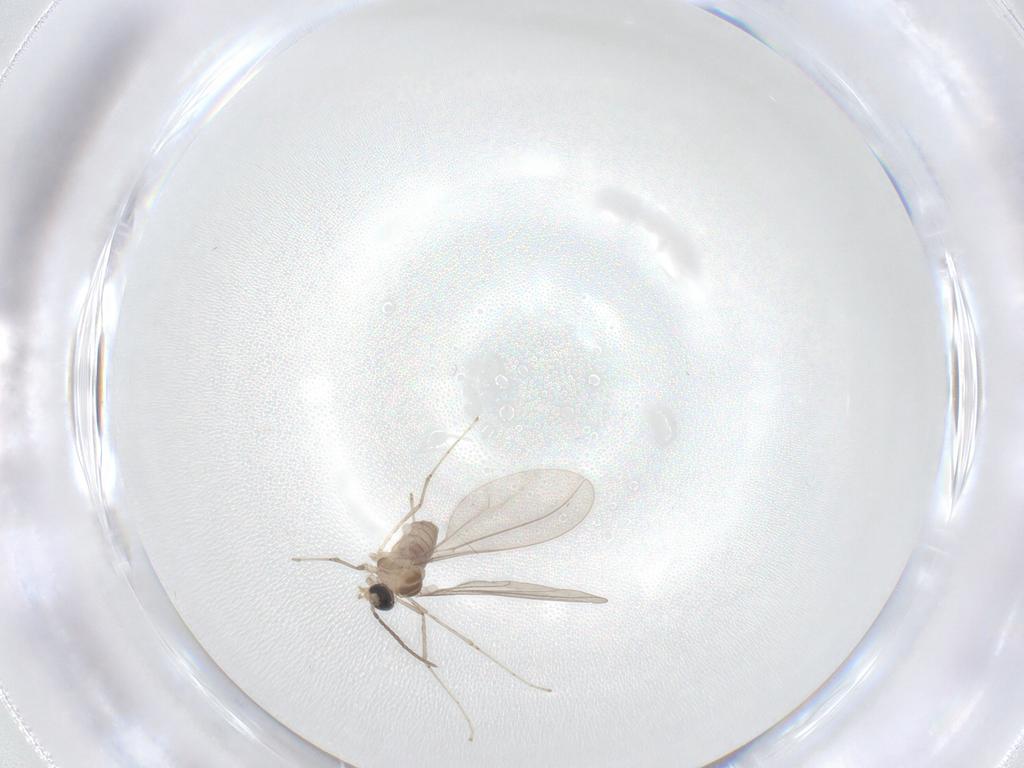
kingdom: Animalia
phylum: Arthropoda
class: Insecta
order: Diptera
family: Cecidomyiidae
